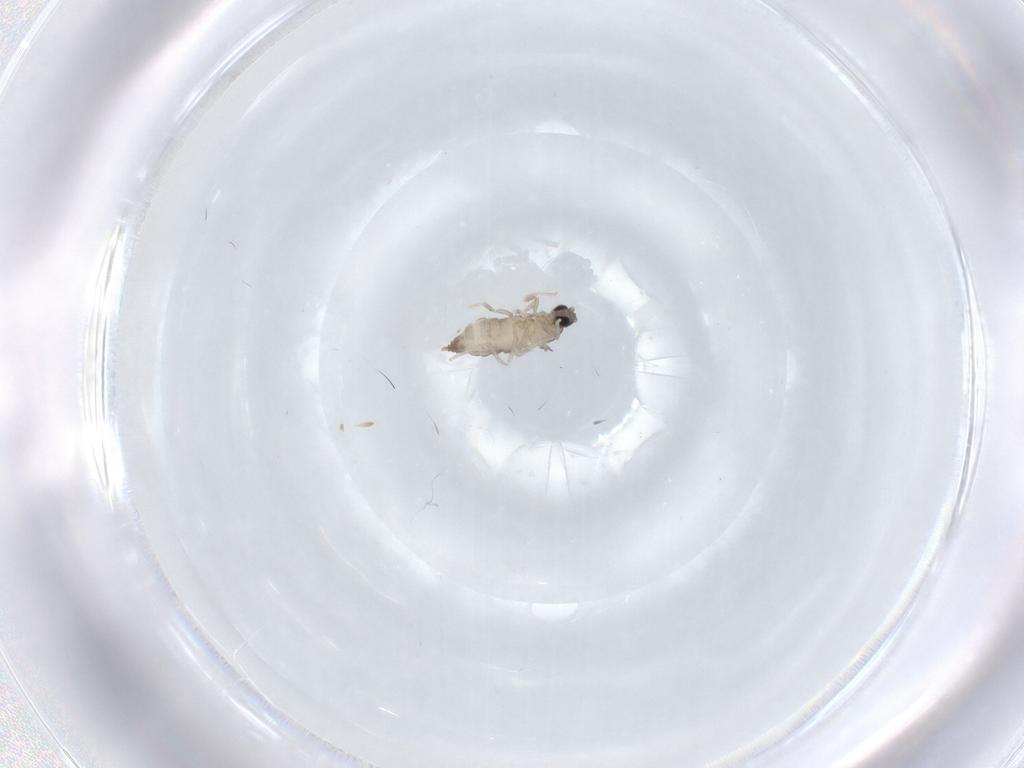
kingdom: Animalia
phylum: Arthropoda
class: Insecta
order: Diptera
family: Cecidomyiidae
